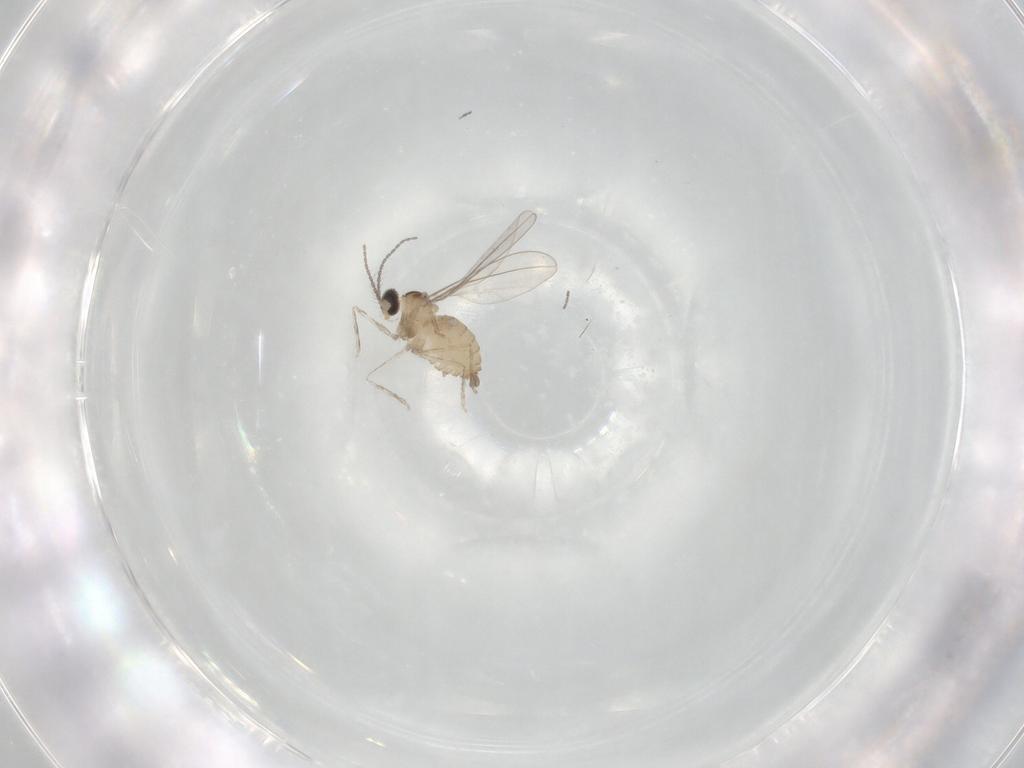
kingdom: Animalia
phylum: Arthropoda
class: Insecta
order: Diptera
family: Cecidomyiidae
